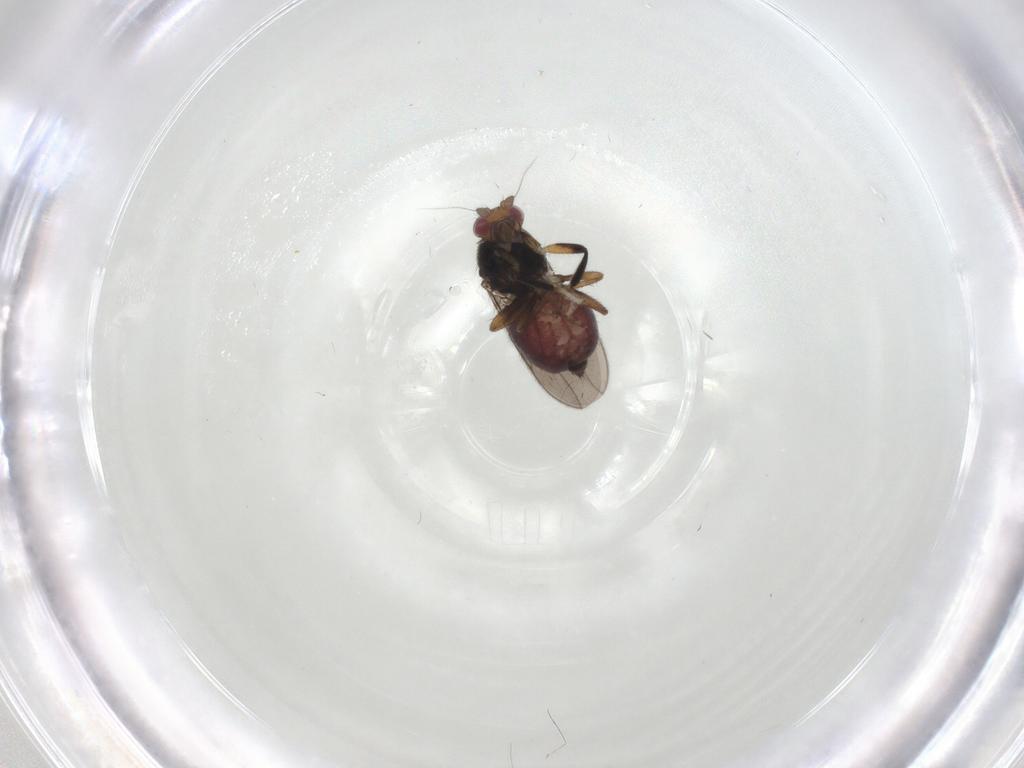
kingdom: Animalia
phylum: Arthropoda
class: Insecta
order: Diptera
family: Sphaeroceridae
